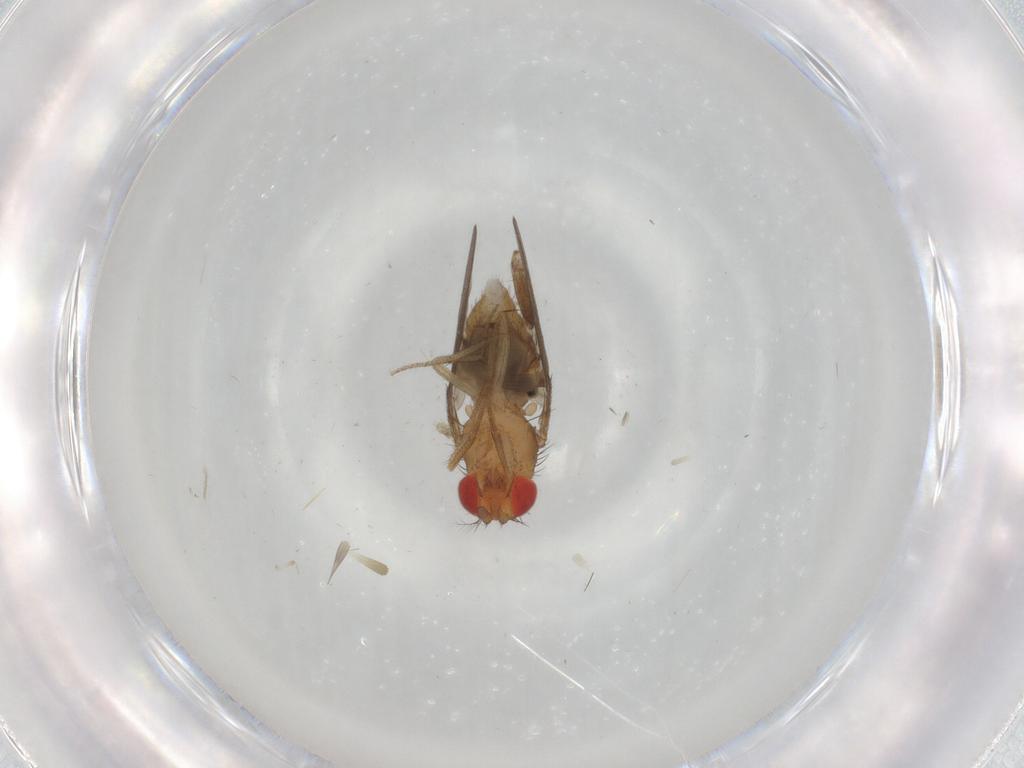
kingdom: Animalia
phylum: Arthropoda
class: Insecta
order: Diptera
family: Drosophilidae
